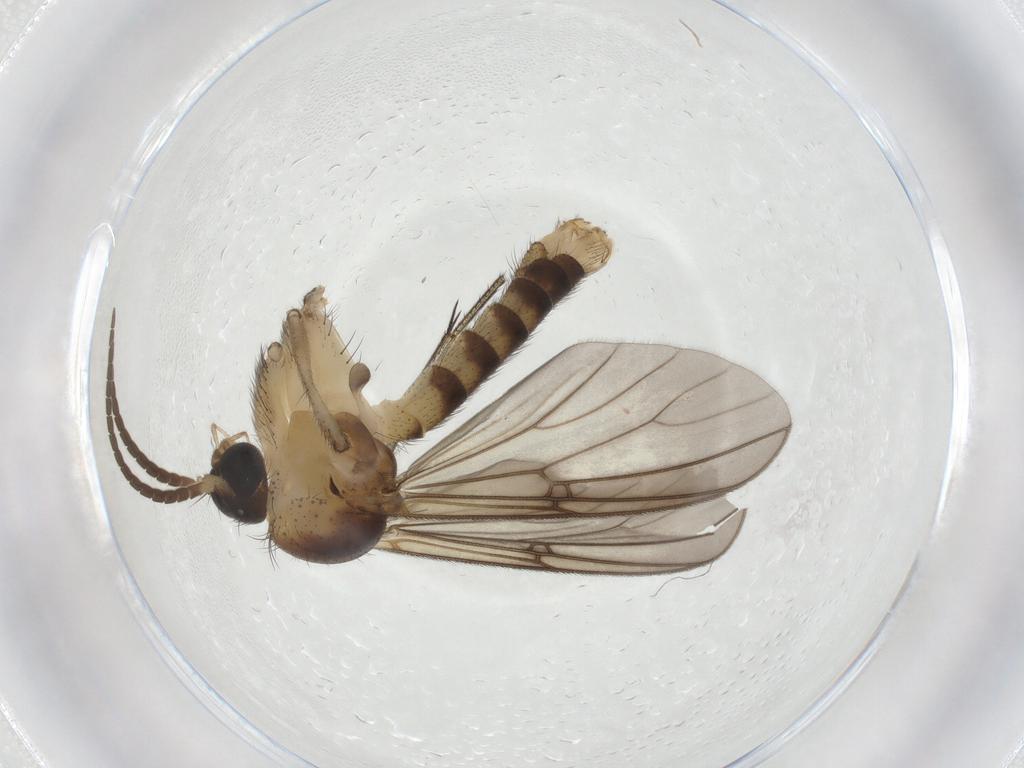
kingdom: Animalia
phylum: Arthropoda
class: Insecta
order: Diptera
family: Mycetophilidae
